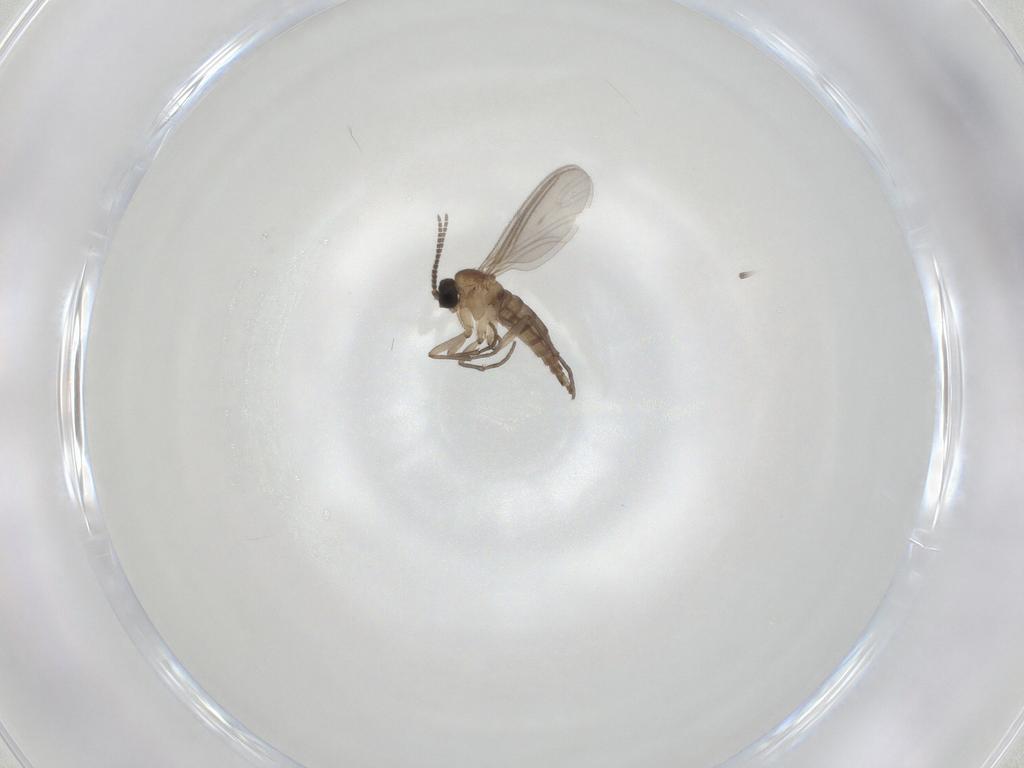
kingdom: Animalia
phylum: Arthropoda
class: Insecta
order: Diptera
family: Sciaridae
